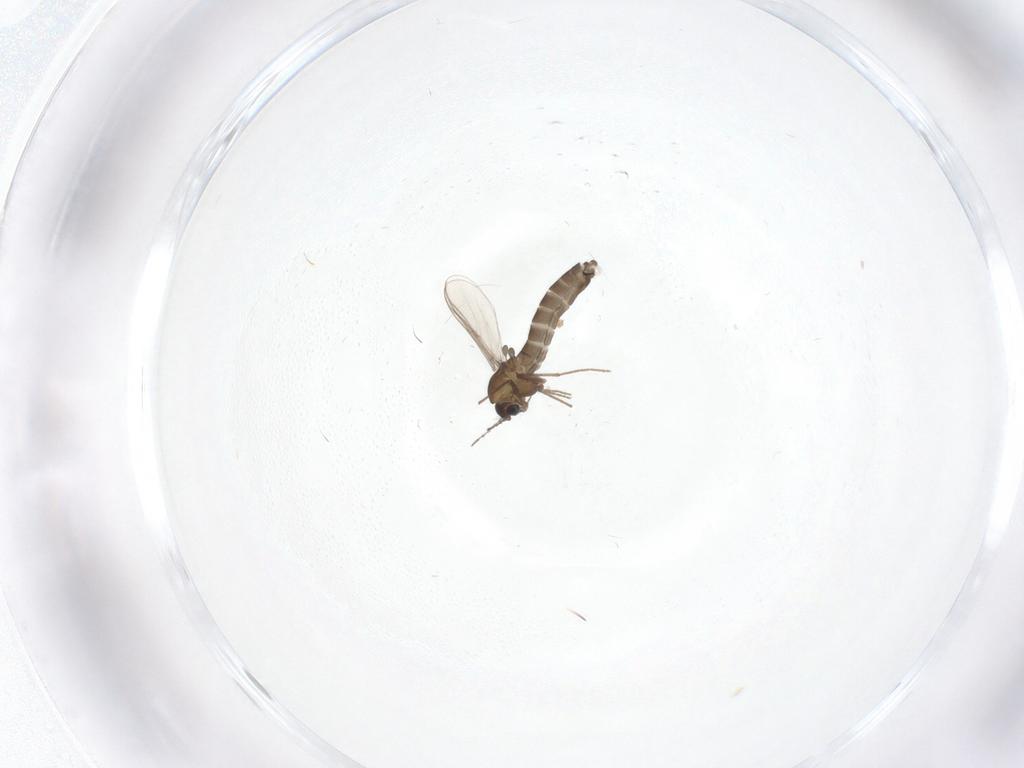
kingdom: Animalia
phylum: Arthropoda
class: Insecta
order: Diptera
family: Chironomidae
